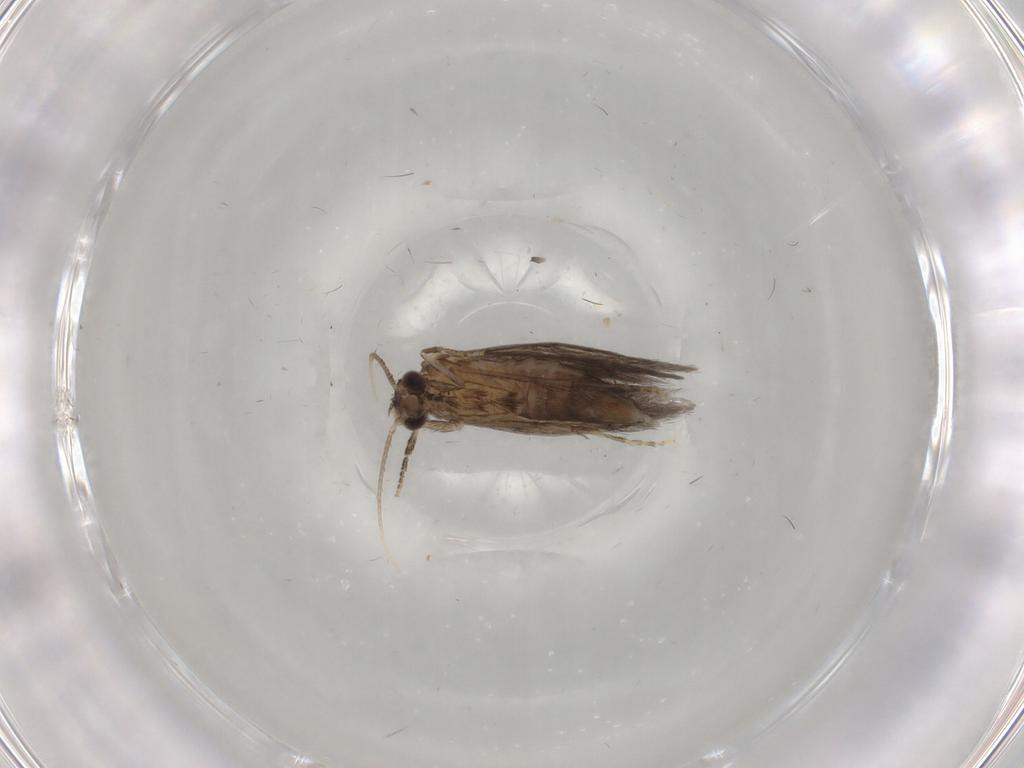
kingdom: Animalia
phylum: Arthropoda
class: Insecta
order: Trichoptera
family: Hydroptilidae
